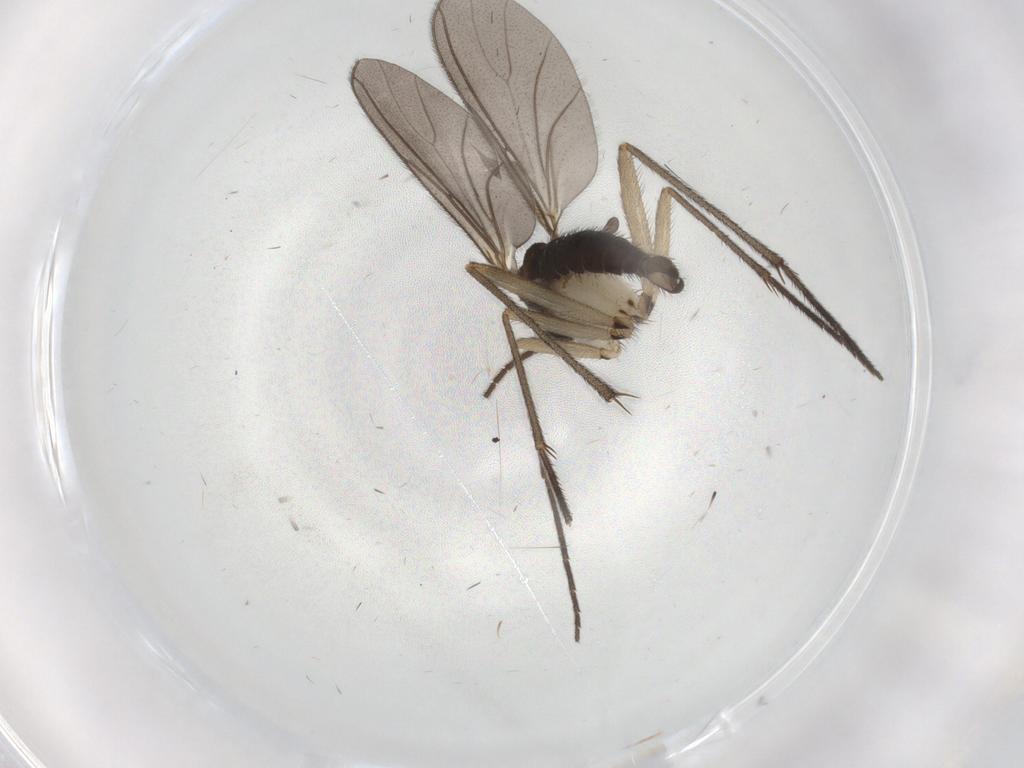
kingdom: Animalia
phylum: Arthropoda
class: Insecta
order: Diptera
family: Sciaridae
